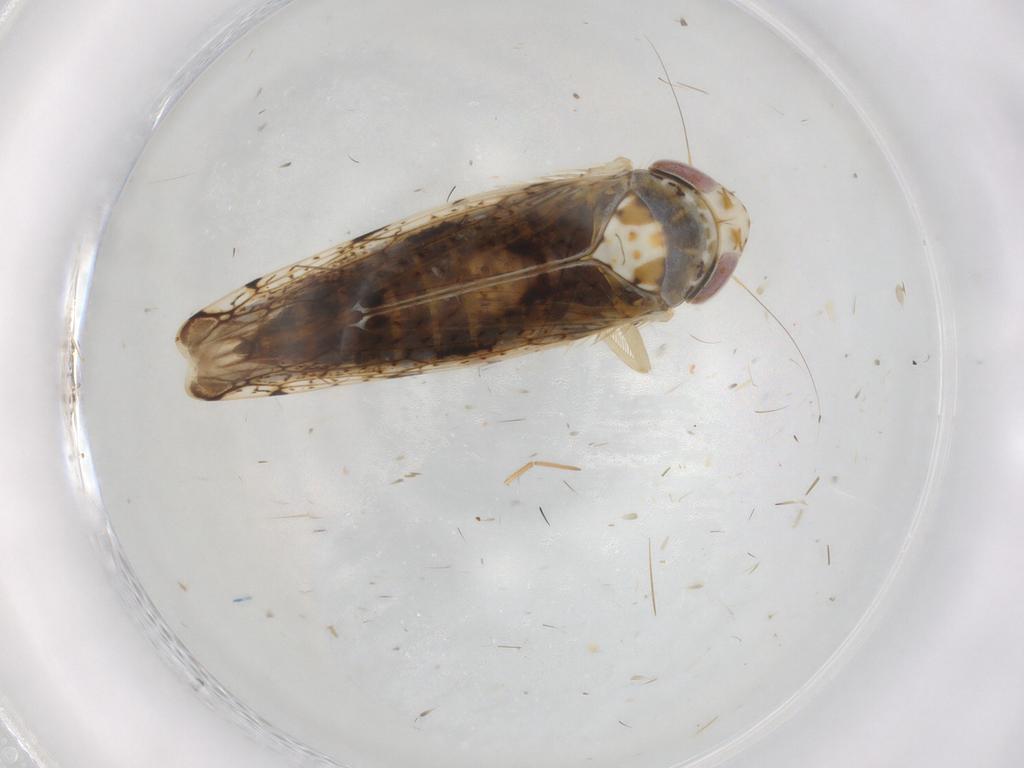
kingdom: Animalia
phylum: Arthropoda
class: Insecta
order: Hemiptera
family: Cicadellidae
